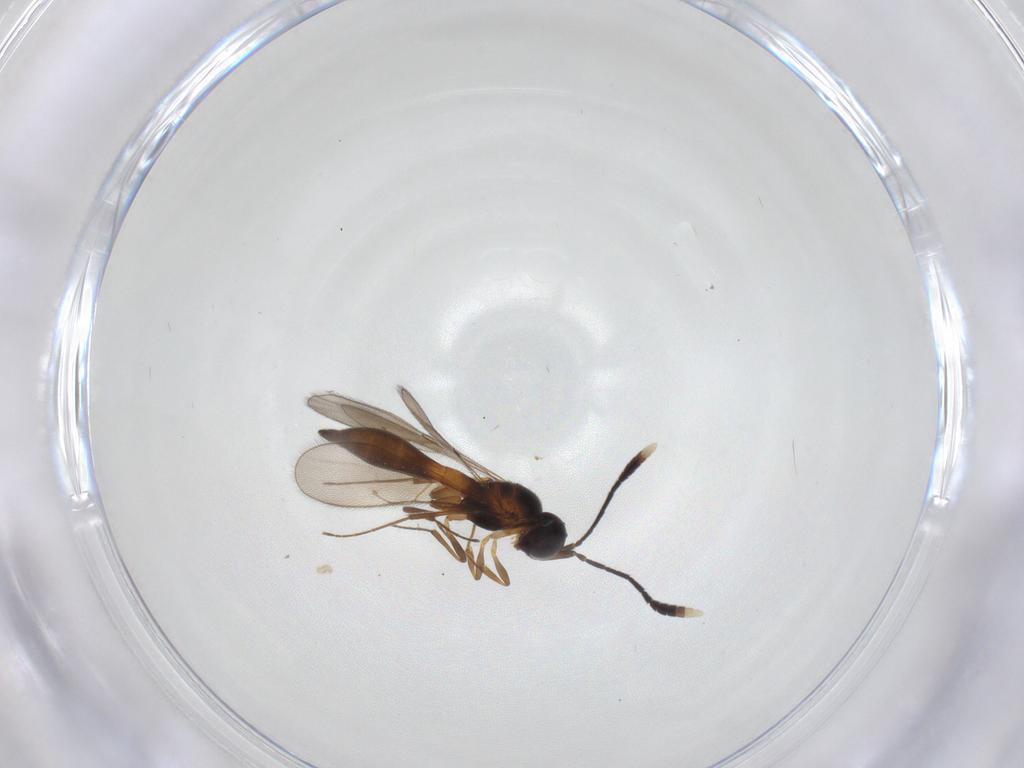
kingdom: Animalia
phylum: Arthropoda
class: Insecta
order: Hymenoptera
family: Scelionidae
